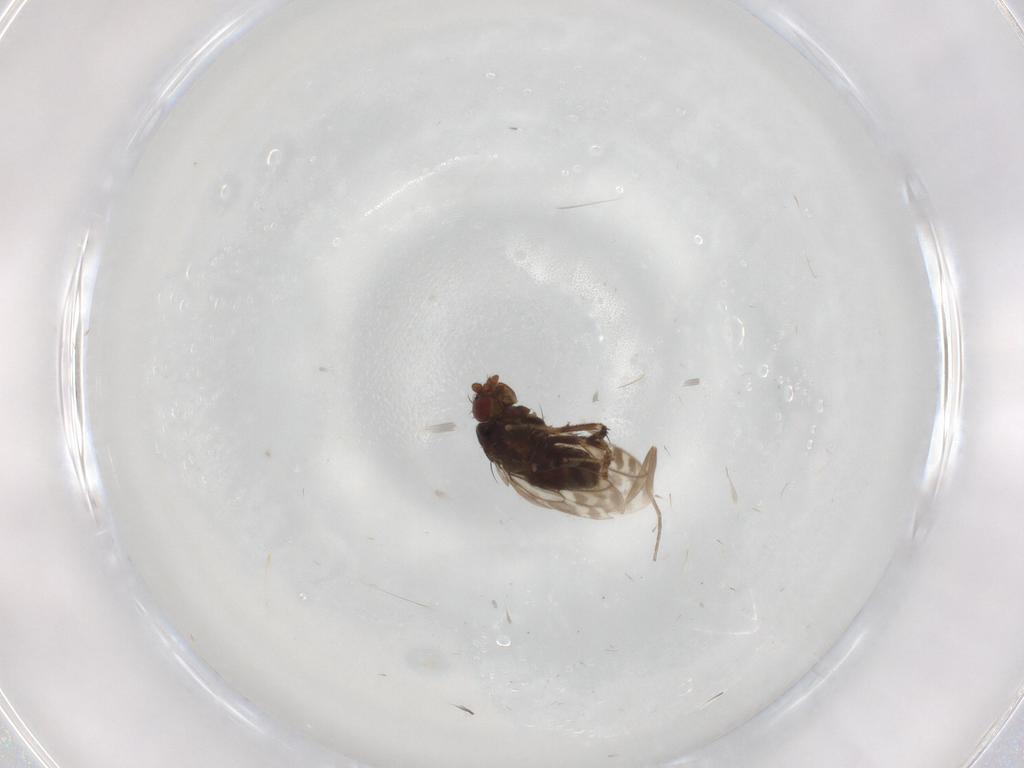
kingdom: Animalia
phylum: Arthropoda
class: Insecta
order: Diptera
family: Sphaeroceridae
